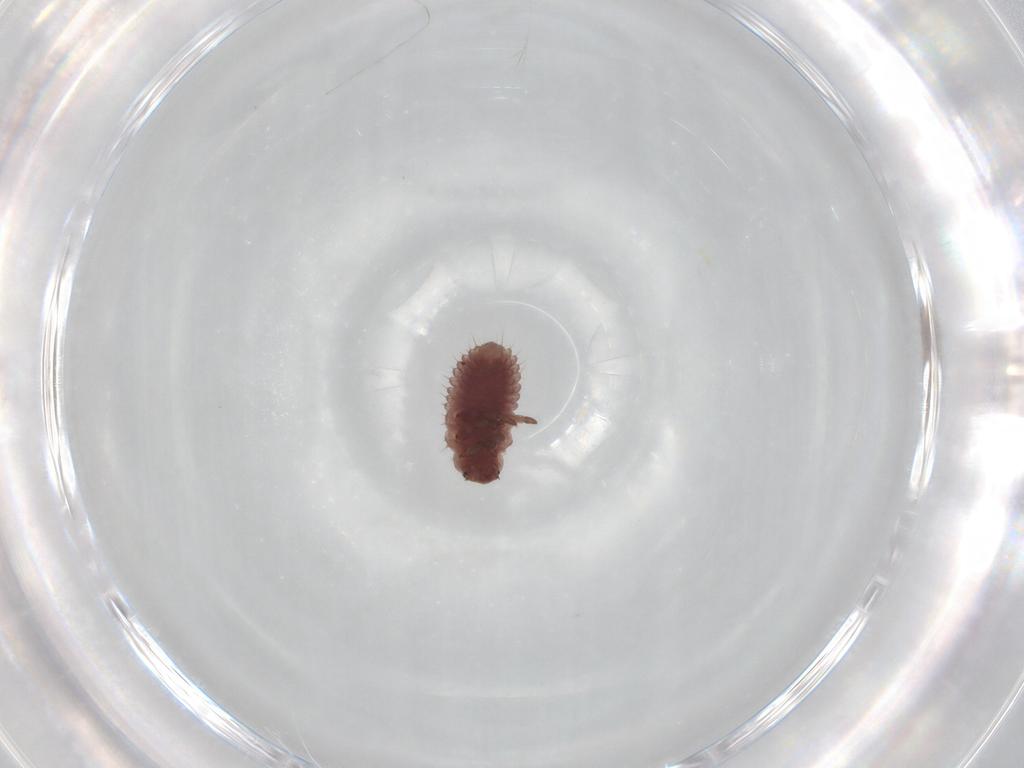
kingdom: Animalia
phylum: Arthropoda
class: Insecta
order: Coleoptera
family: Coccinellidae
